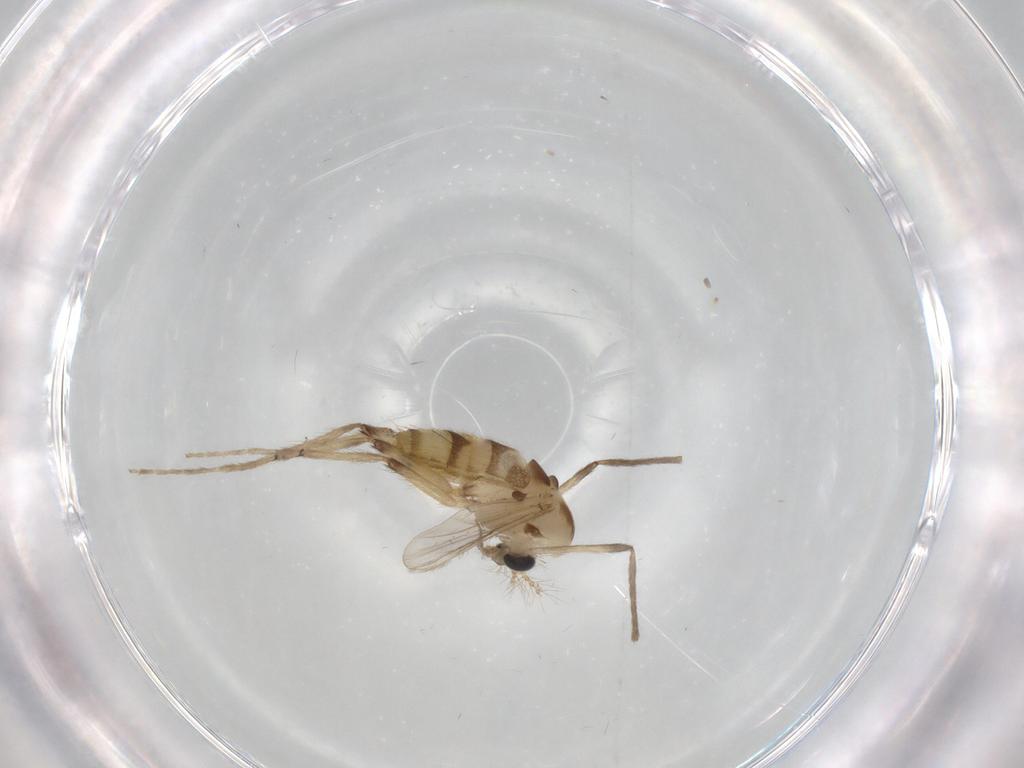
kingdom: Animalia
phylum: Arthropoda
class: Insecta
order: Diptera
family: Chironomidae
